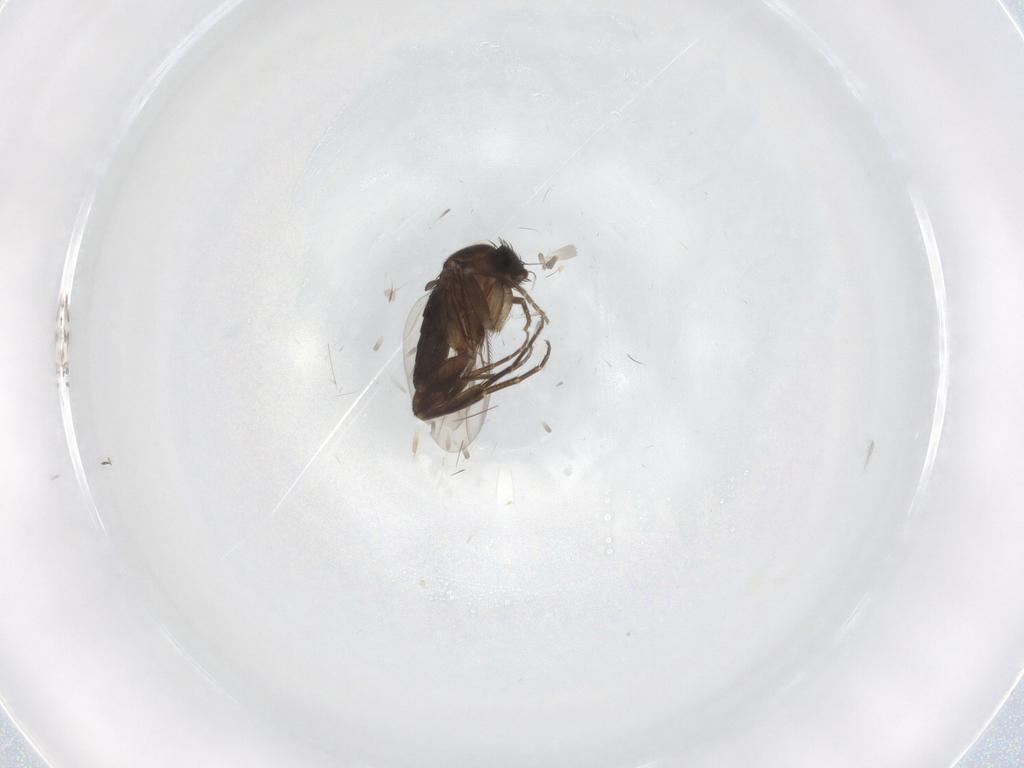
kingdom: Animalia
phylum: Arthropoda
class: Insecta
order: Diptera
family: Phoridae
